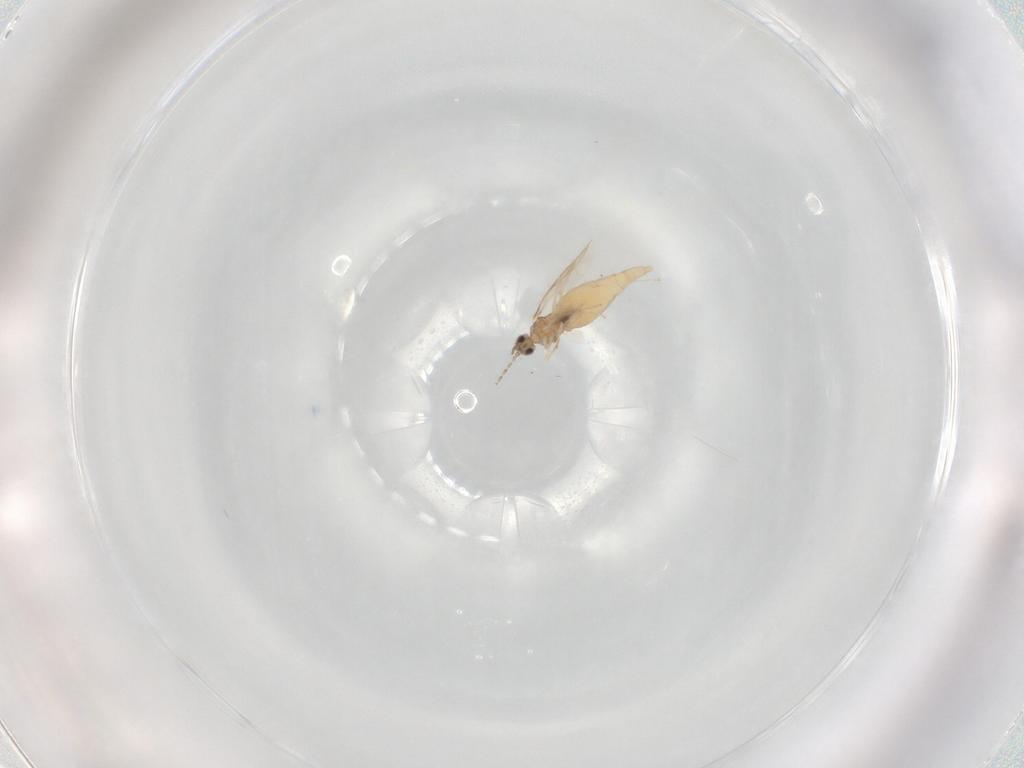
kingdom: Animalia
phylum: Arthropoda
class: Insecta
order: Diptera
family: Cecidomyiidae
